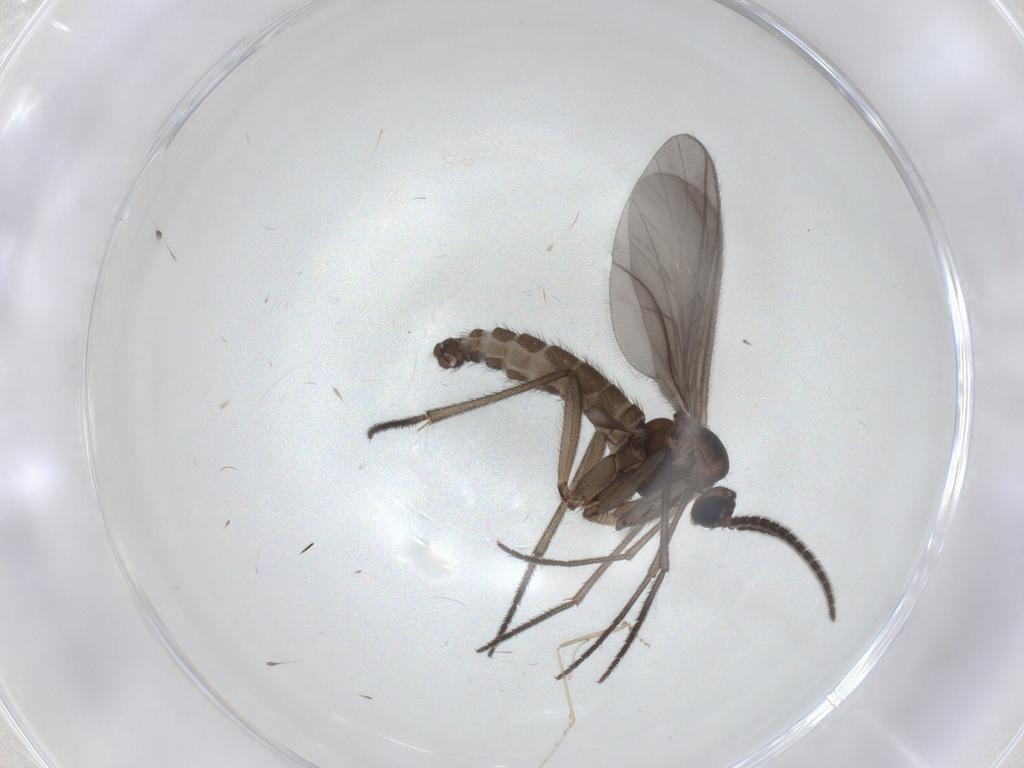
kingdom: Animalia
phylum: Arthropoda
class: Insecta
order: Diptera
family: Sciaridae
